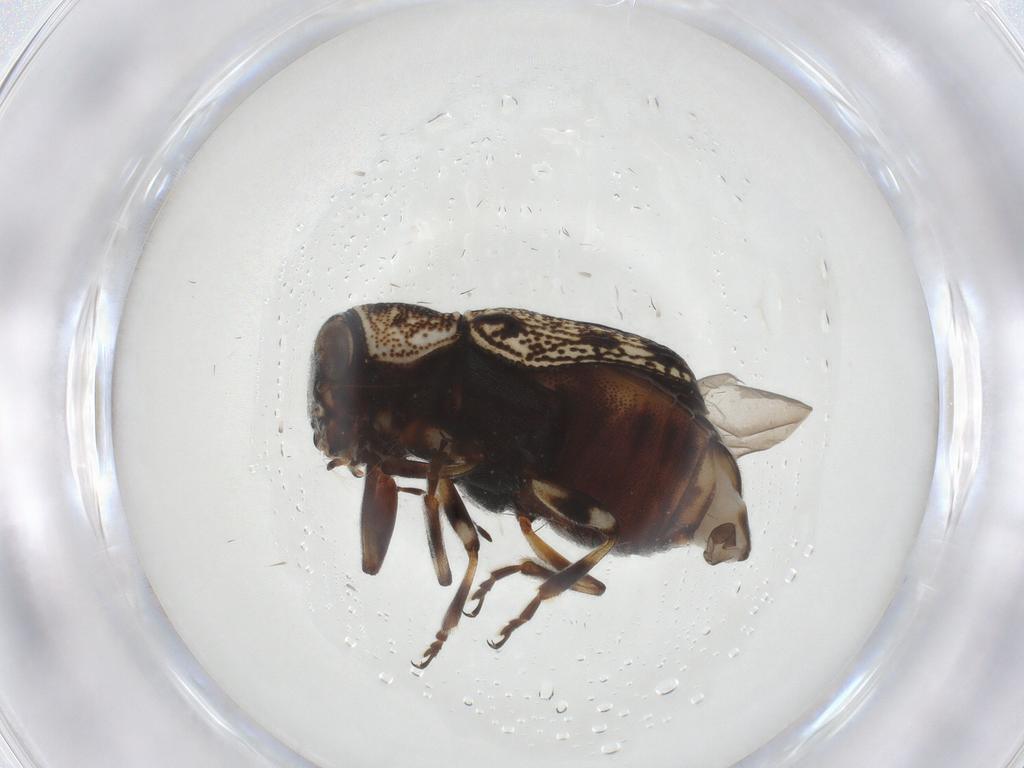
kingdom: Animalia
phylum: Arthropoda
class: Insecta
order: Coleoptera
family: Chrysomelidae
